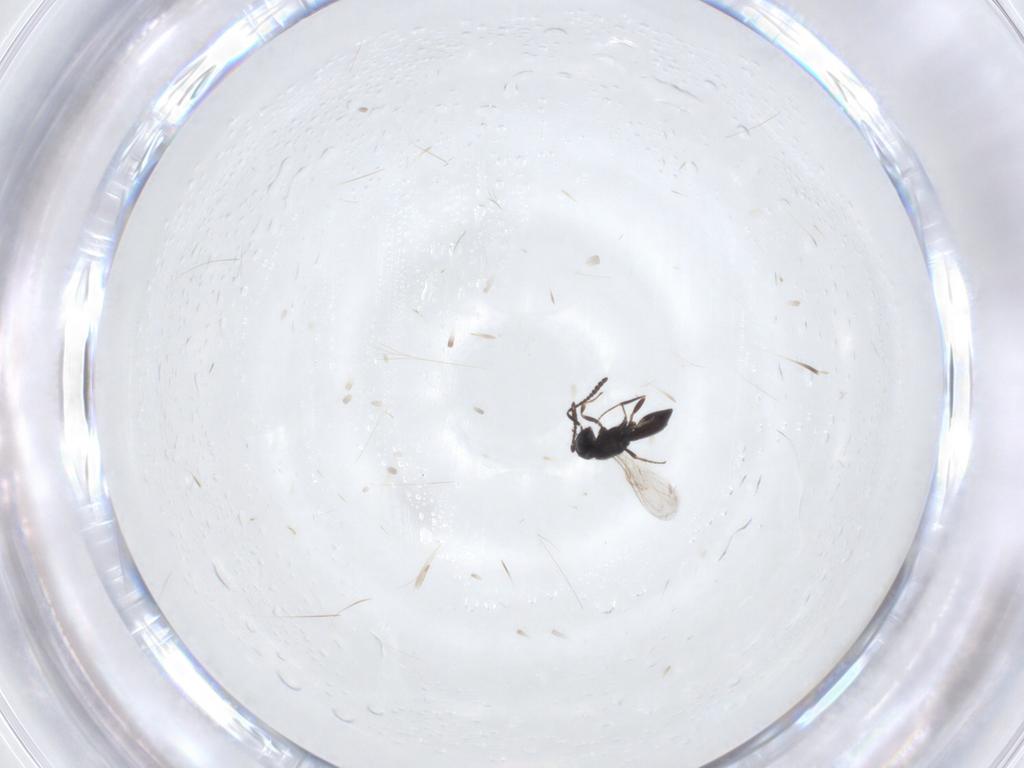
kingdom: Animalia
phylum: Arthropoda
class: Insecta
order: Hymenoptera
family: Scelionidae
